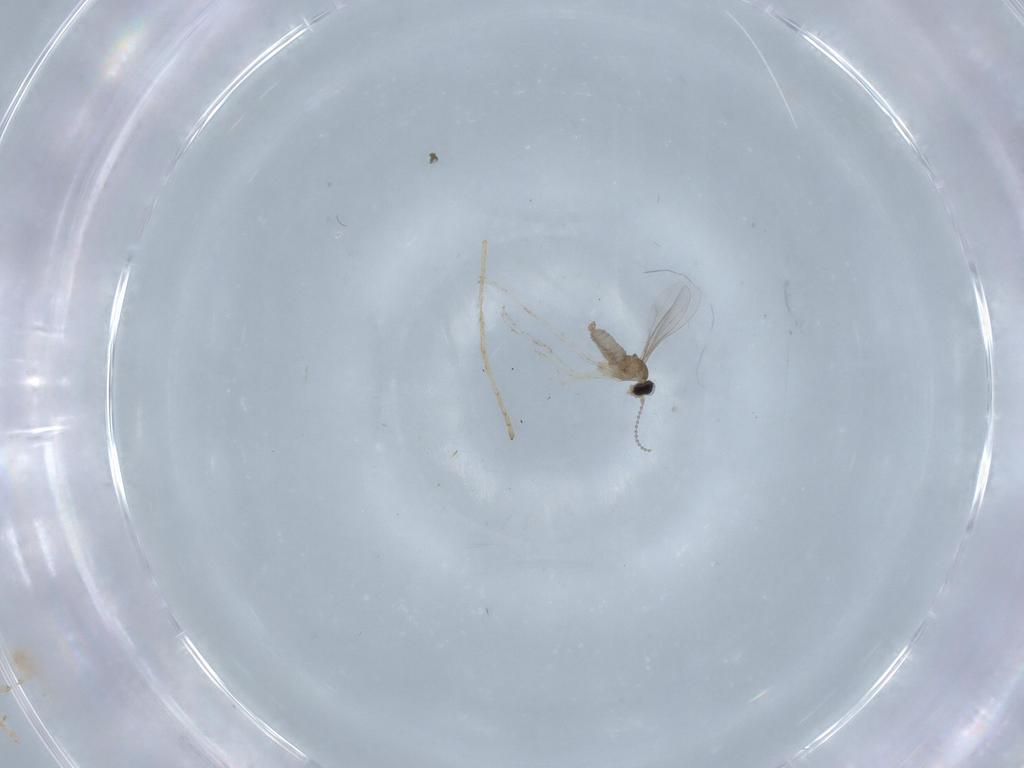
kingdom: Animalia
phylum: Arthropoda
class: Insecta
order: Diptera
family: Limoniidae
